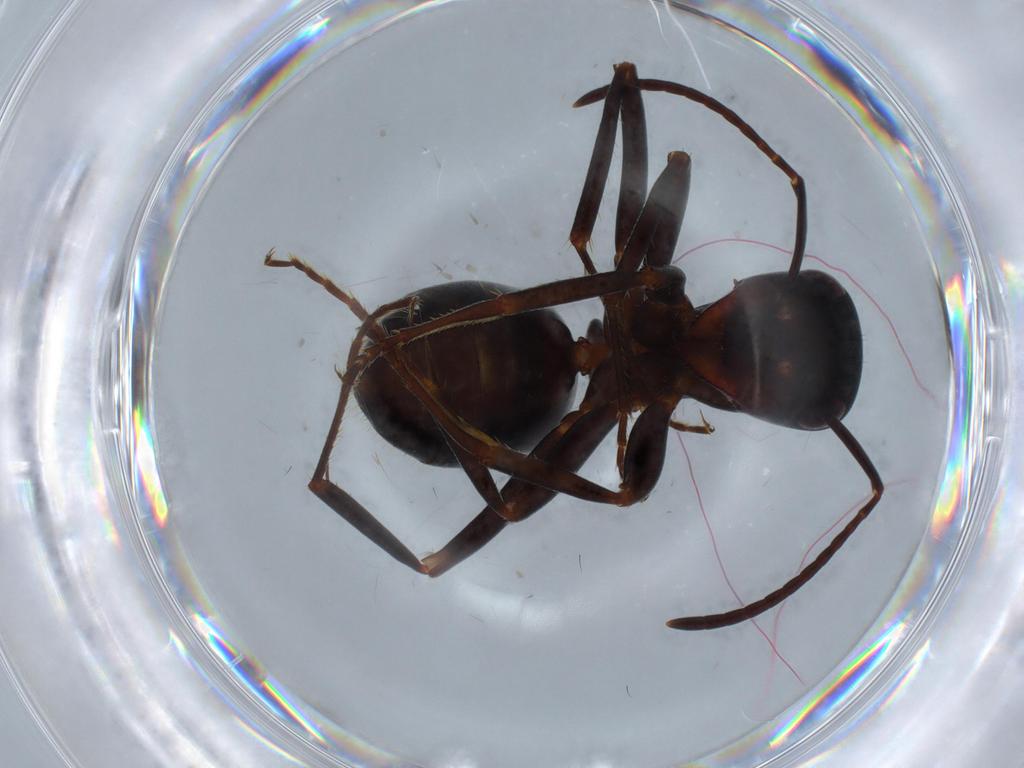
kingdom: Animalia
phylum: Arthropoda
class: Insecta
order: Hymenoptera
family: Formicidae
